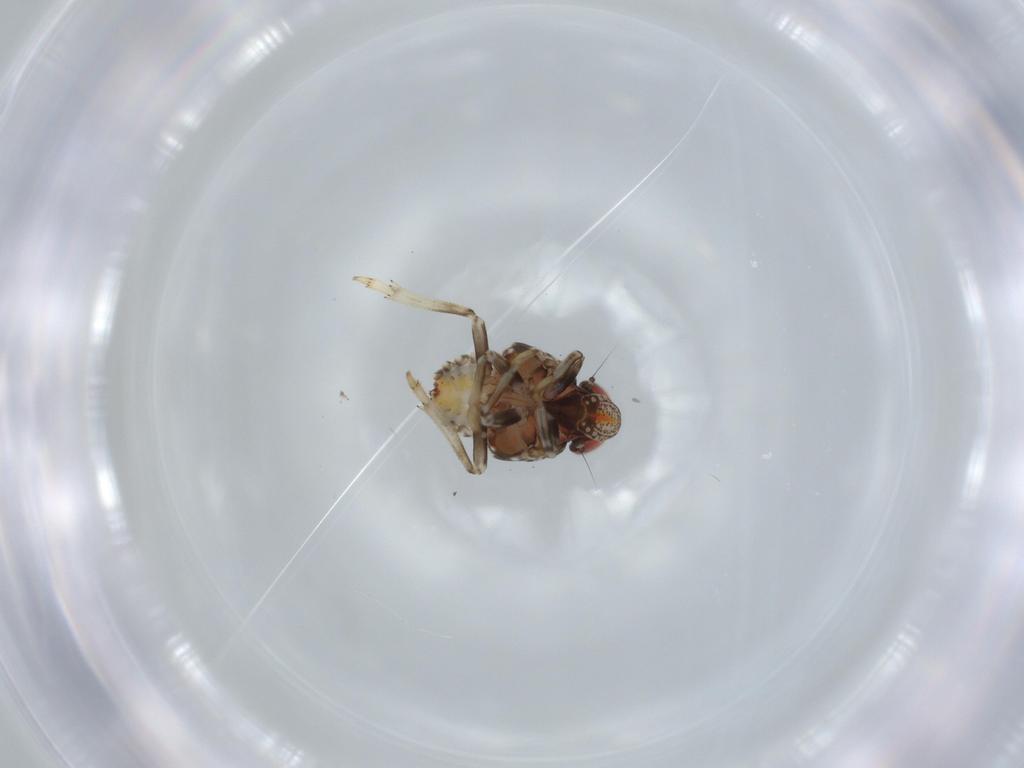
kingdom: Animalia
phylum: Arthropoda
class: Insecta
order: Hemiptera
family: Issidae
